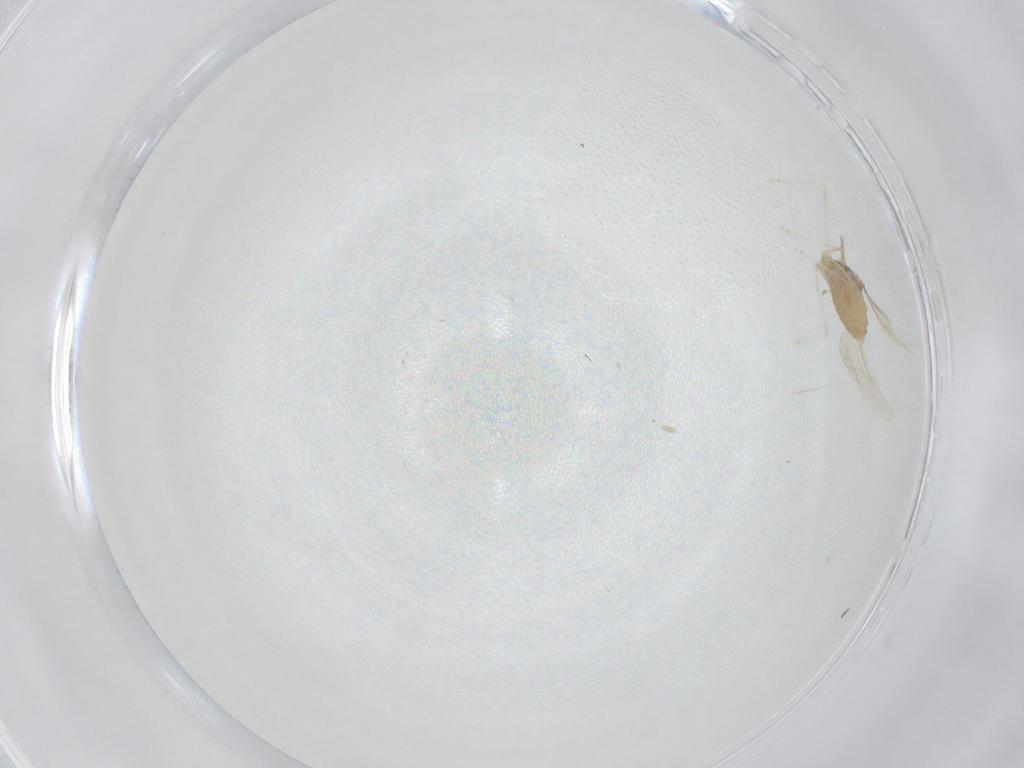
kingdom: Animalia
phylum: Arthropoda
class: Insecta
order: Diptera
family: Psychodidae
